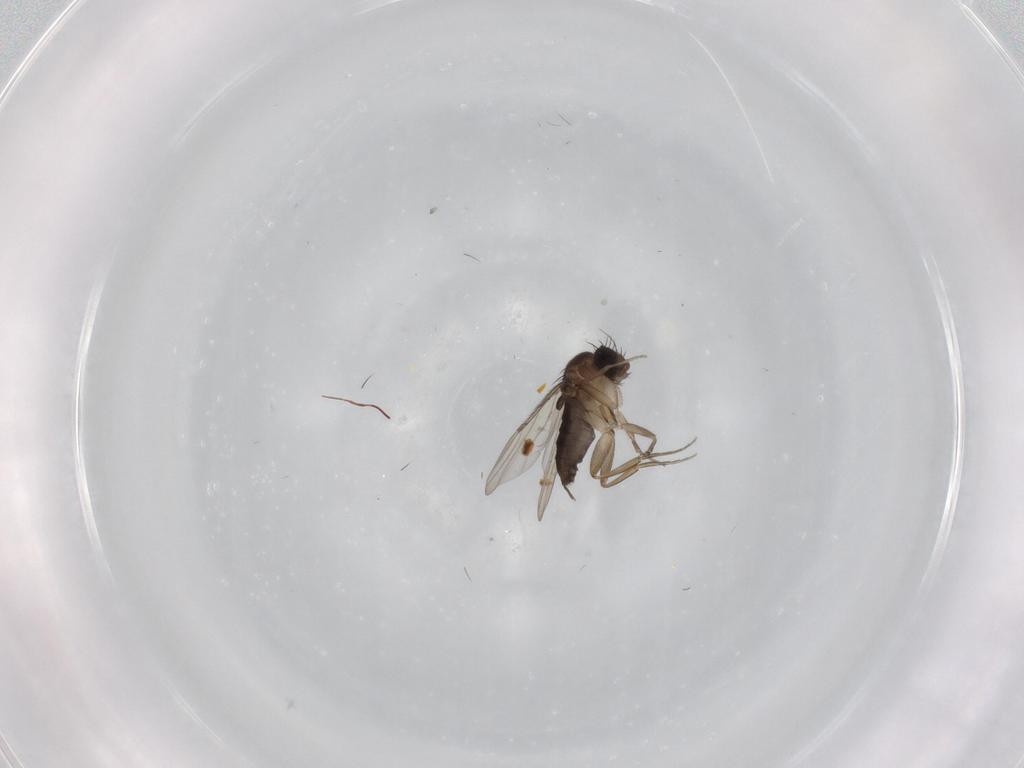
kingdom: Animalia
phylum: Arthropoda
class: Insecta
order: Diptera
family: Phoridae
